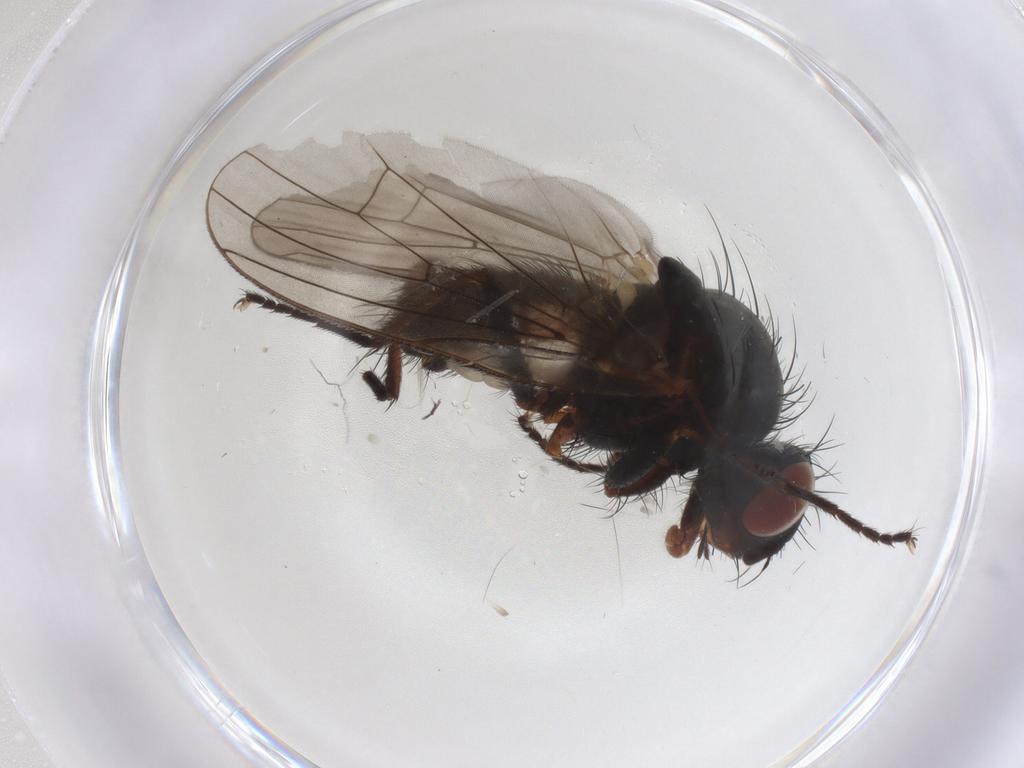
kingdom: Animalia
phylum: Arthropoda
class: Insecta
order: Diptera
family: Anthomyiidae
